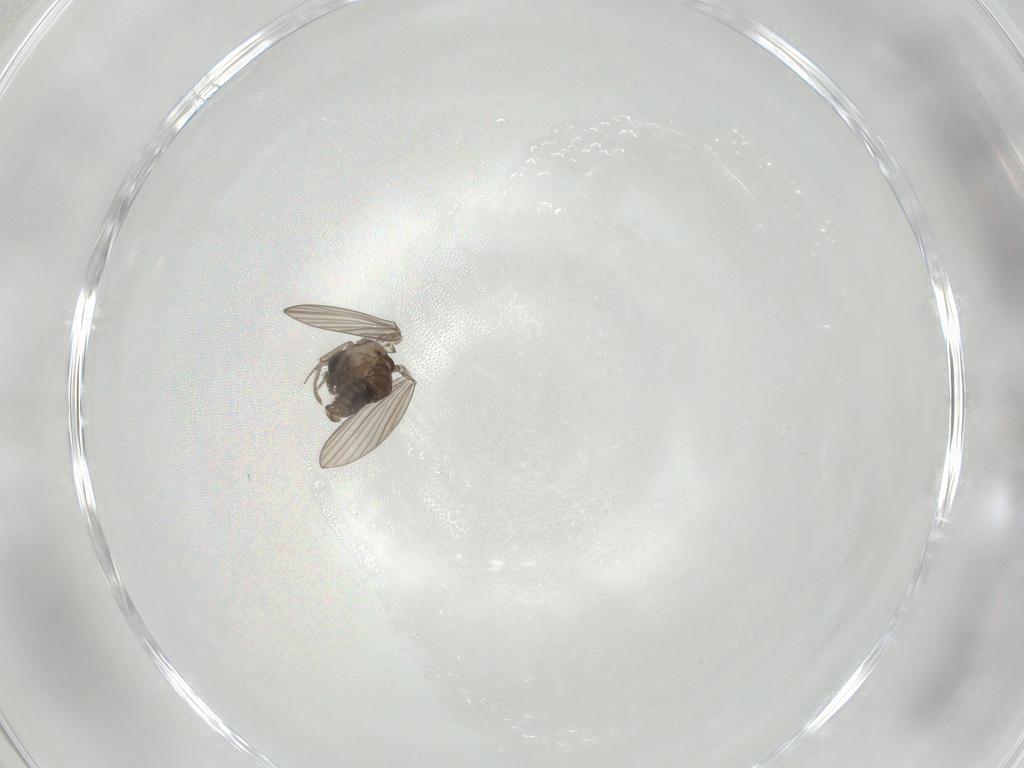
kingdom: Animalia
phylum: Arthropoda
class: Insecta
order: Diptera
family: Psychodidae
